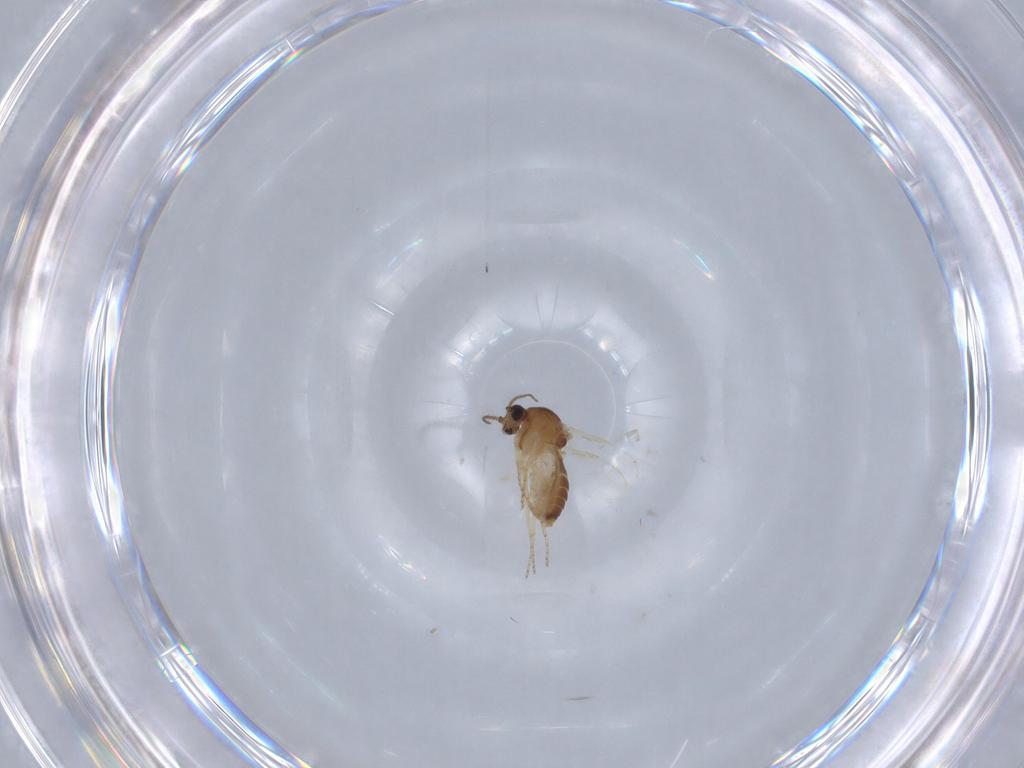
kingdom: Animalia
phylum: Arthropoda
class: Insecta
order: Diptera
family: Ceratopogonidae
